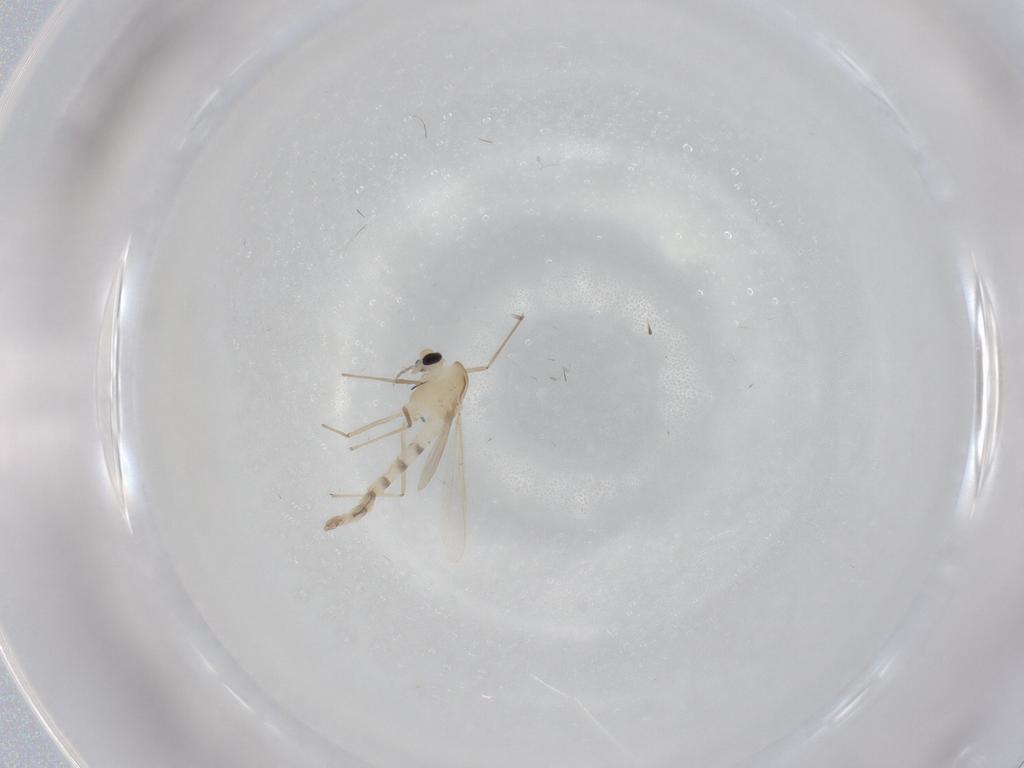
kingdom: Animalia
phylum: Arthropoda
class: Insecta
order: Diptera
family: Chironomidae
